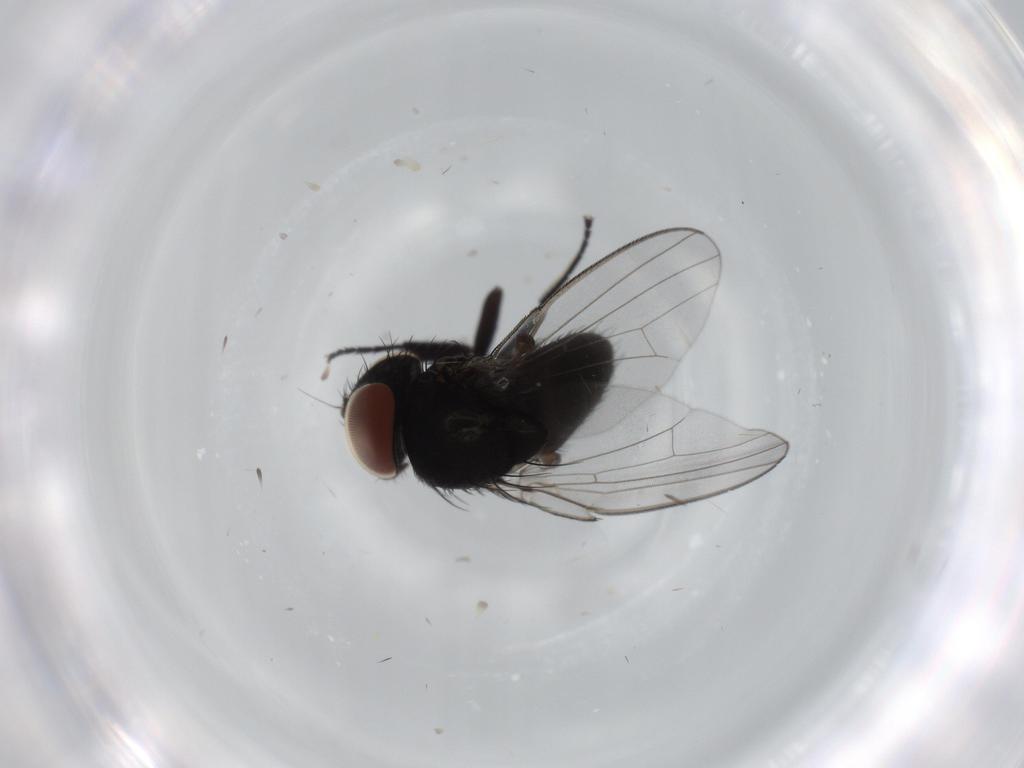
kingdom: Animalia
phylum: Arthropoda
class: Insecta
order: Diptera
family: Milichiidae
